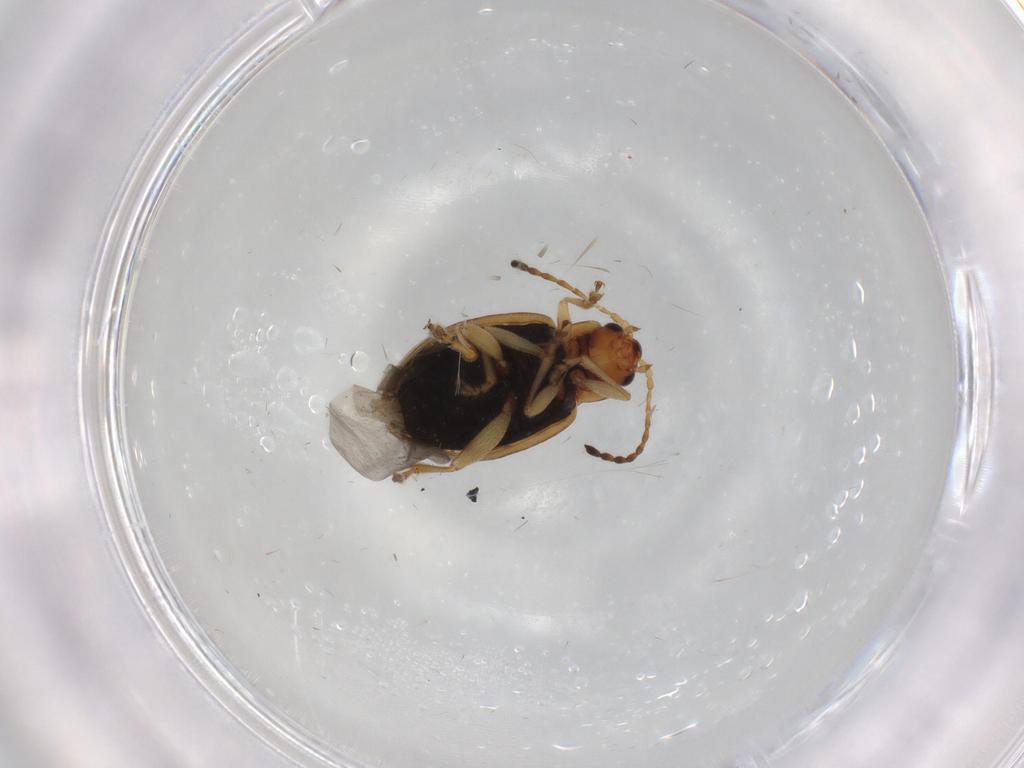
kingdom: Animalia
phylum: Arthropoda
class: Insecta
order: Coleoptera
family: Chrysomelidae
